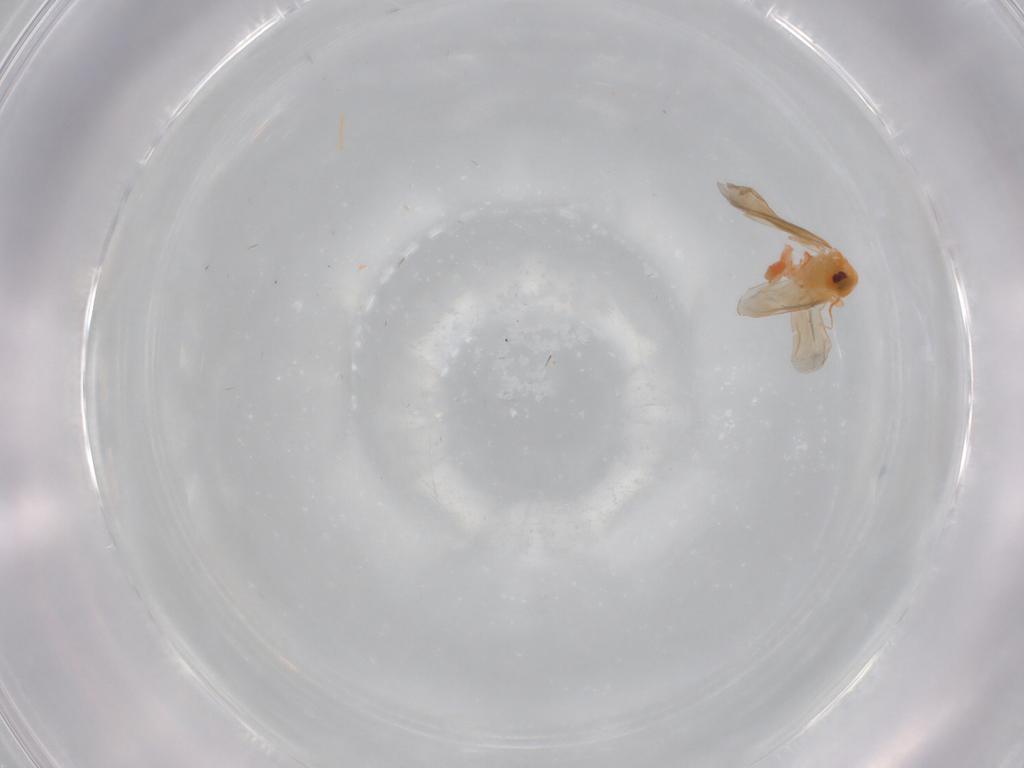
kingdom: Animalia
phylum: Arthropoda
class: Insecta
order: Hemiptera
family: Aleyrodidae
